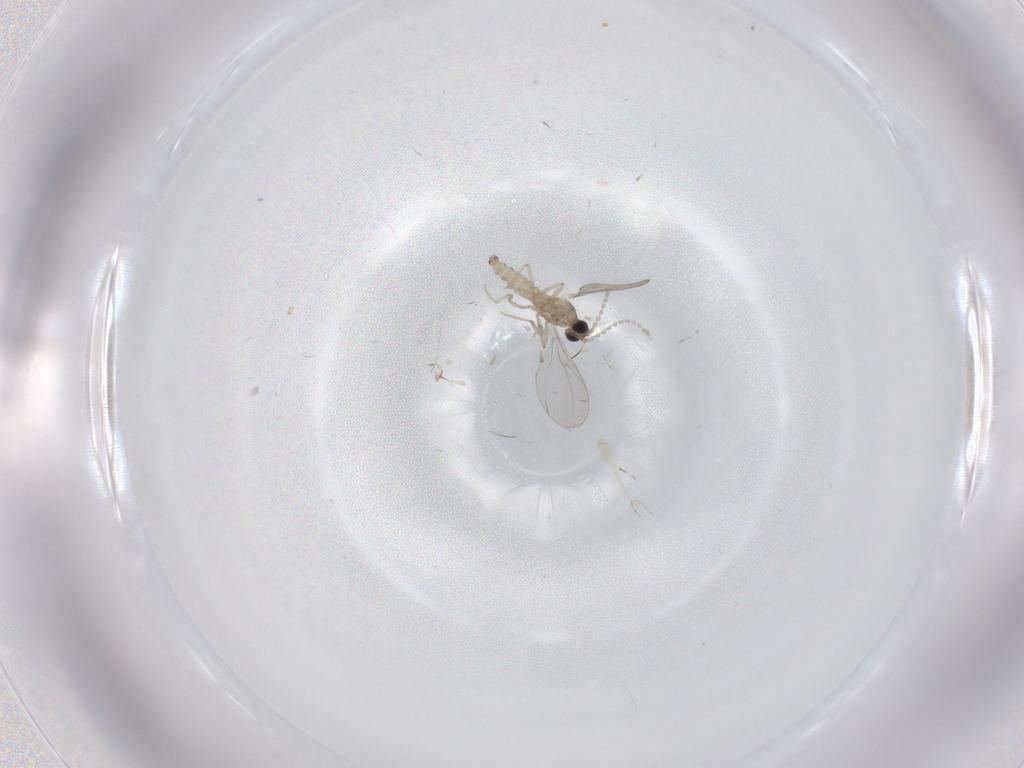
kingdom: Animalia
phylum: Arthropoda
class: Insecta
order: Diptera
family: Cecidomyiidae
